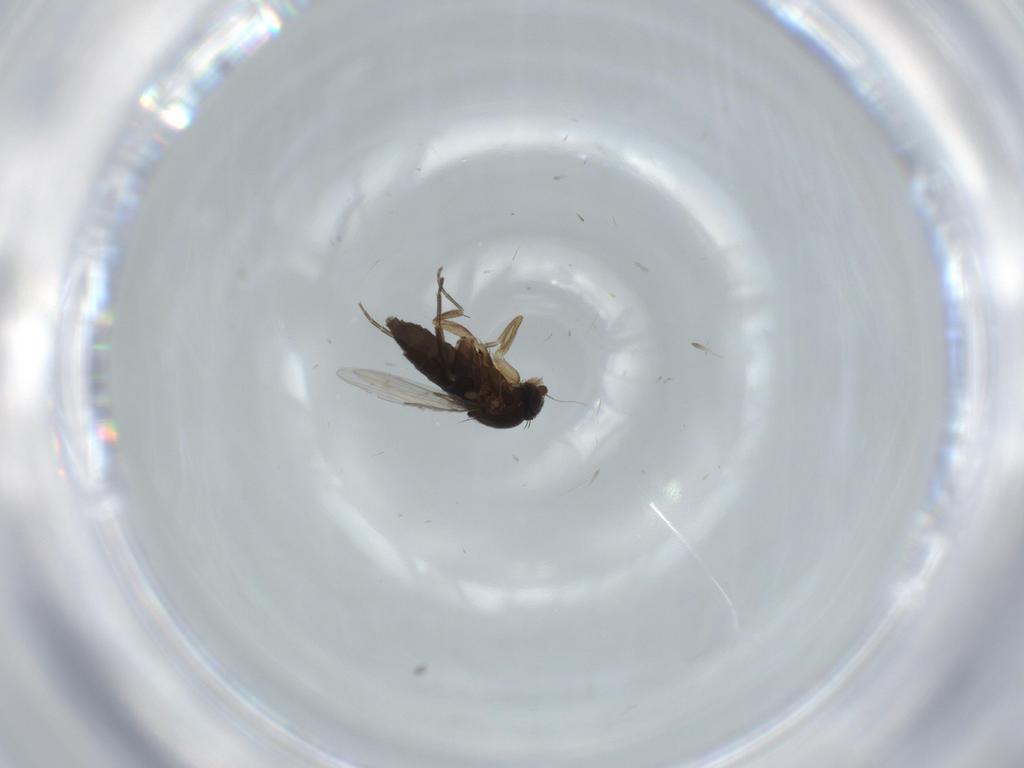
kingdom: Animalia
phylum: Arthropoda
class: Insecta
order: Diptera
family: Phoridae
